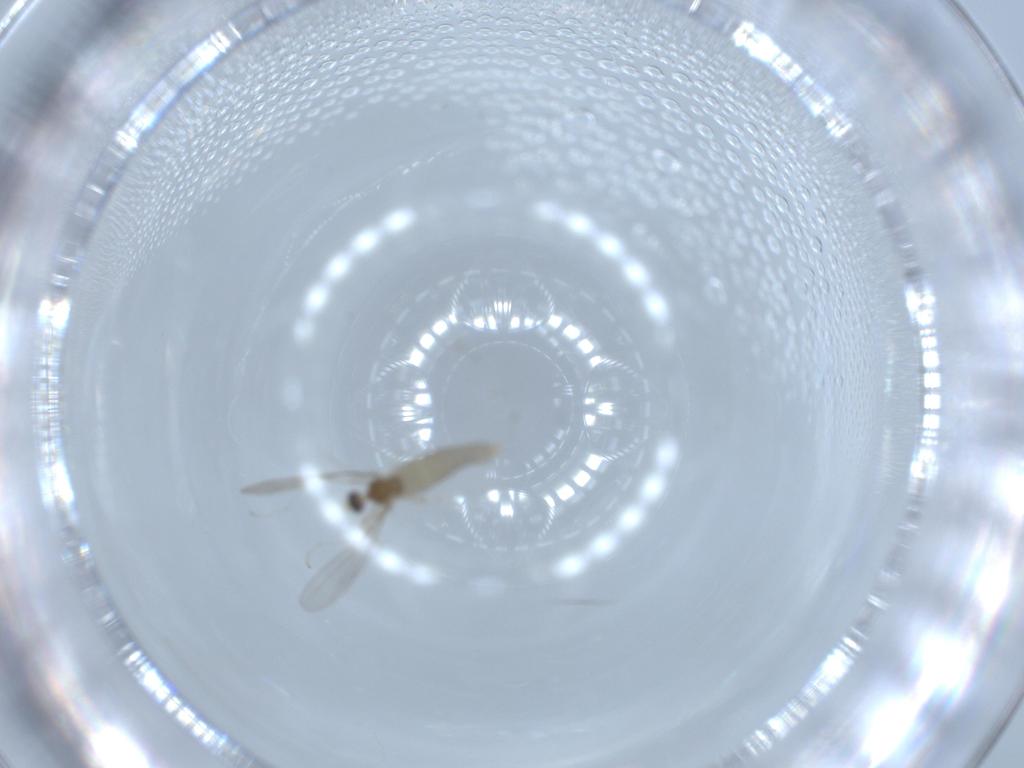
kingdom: Animalia
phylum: Arthropoda
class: Insecta
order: Diptera
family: Cecidomyiidae
